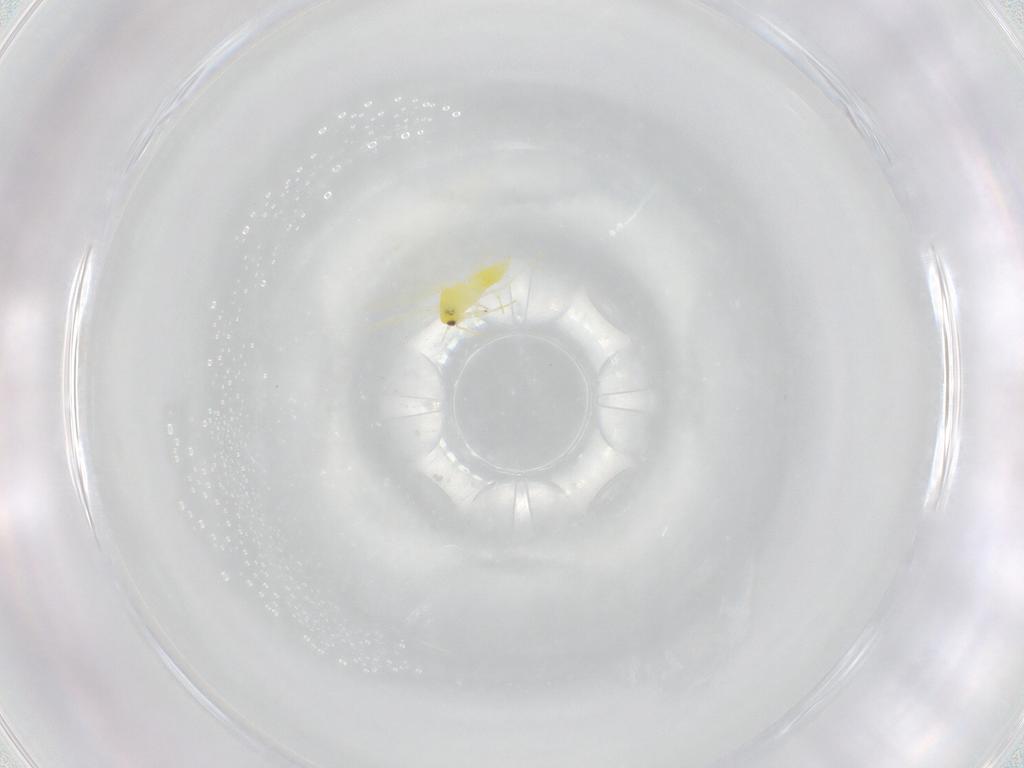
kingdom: Animalia
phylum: Arthropoda
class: Insecta
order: Hemiptera
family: Aleyrodidae
